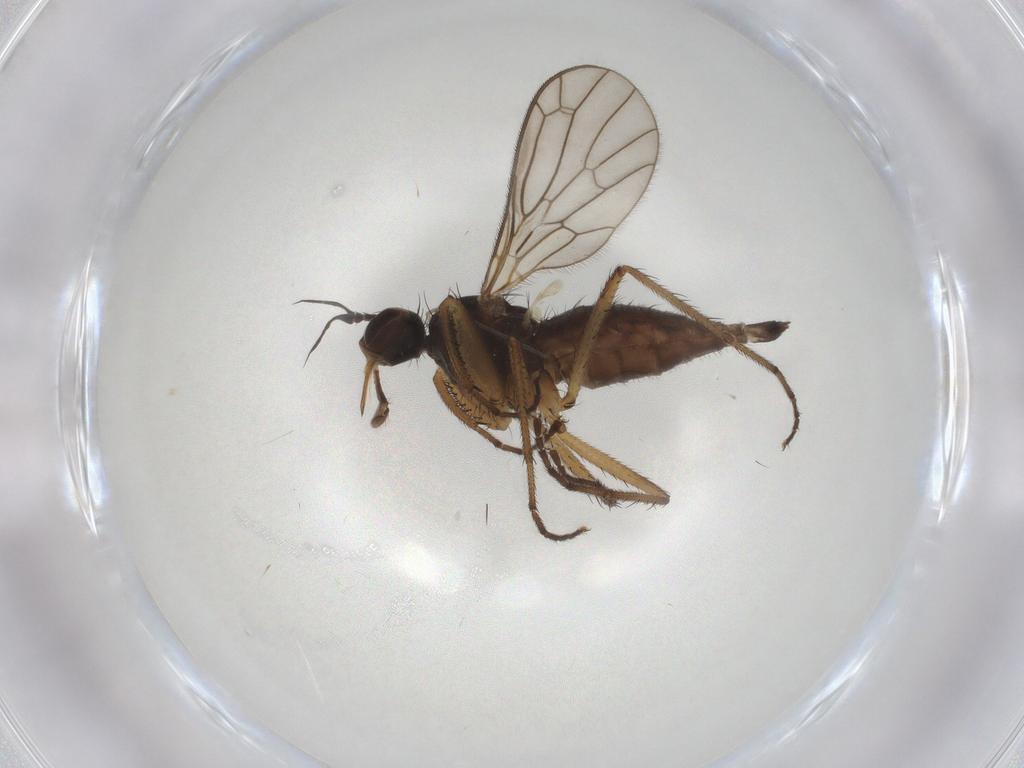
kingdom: Animalia
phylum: Arthropoda
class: Insecta
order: Diptera
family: Empididae
